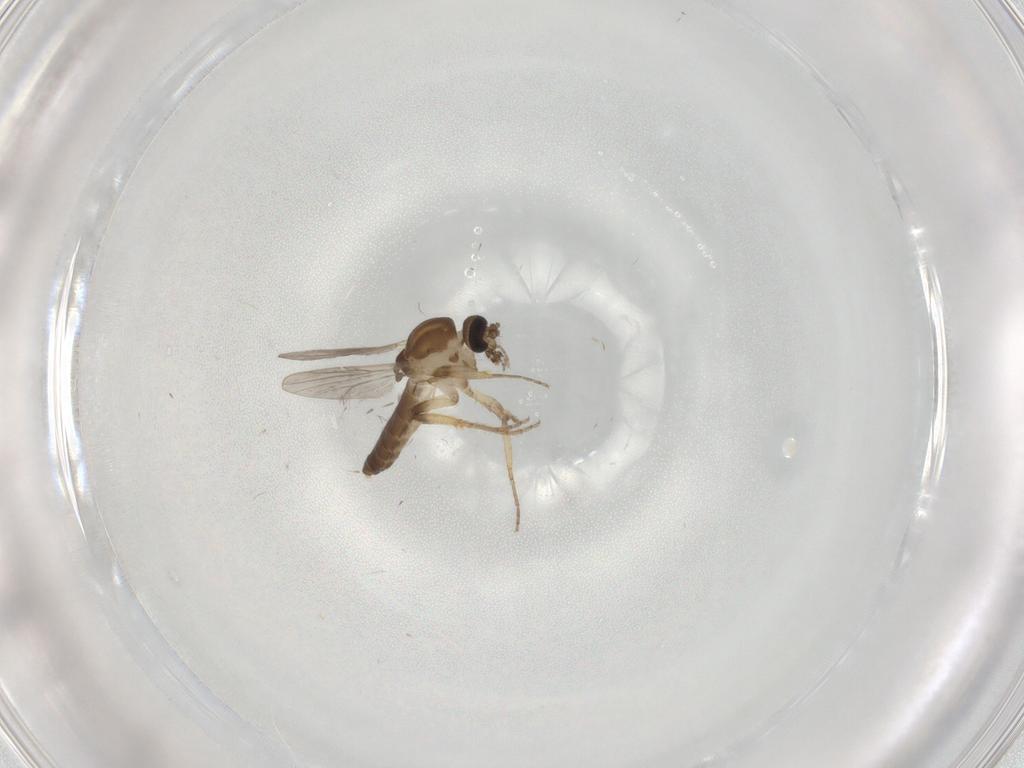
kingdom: Animalia
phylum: Arthropoda
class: Insecta
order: Diptera
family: Ceratopogonidae
